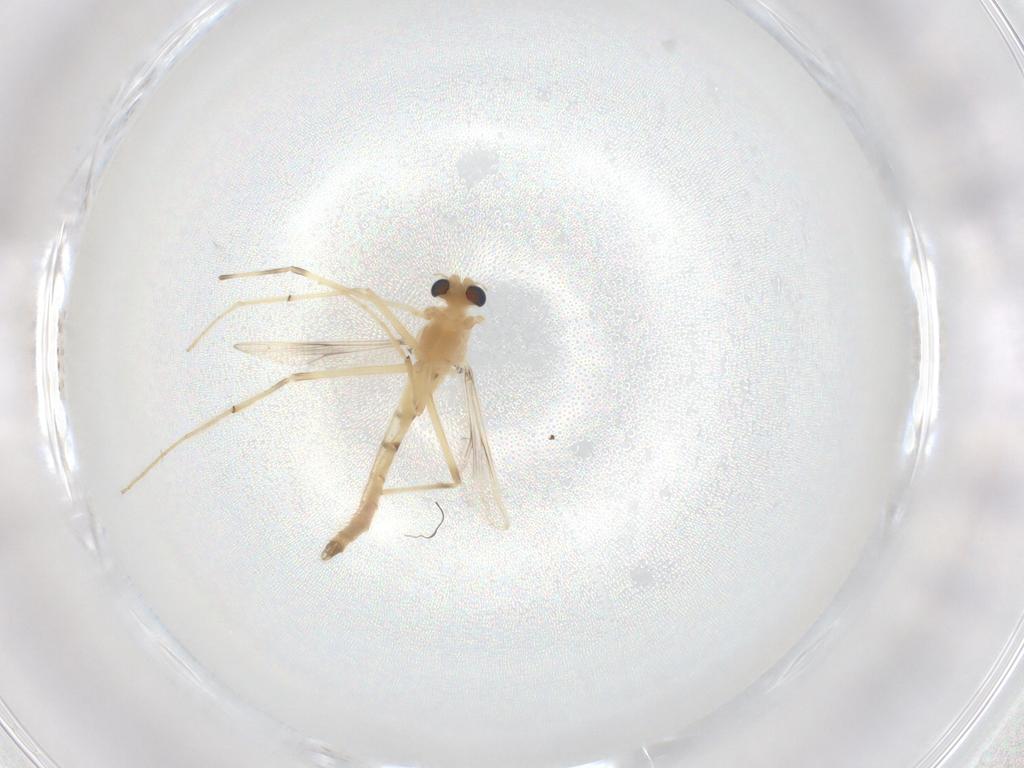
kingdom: Animalia
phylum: Arthropoda
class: Insecta
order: Diptera
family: Chironomidae
